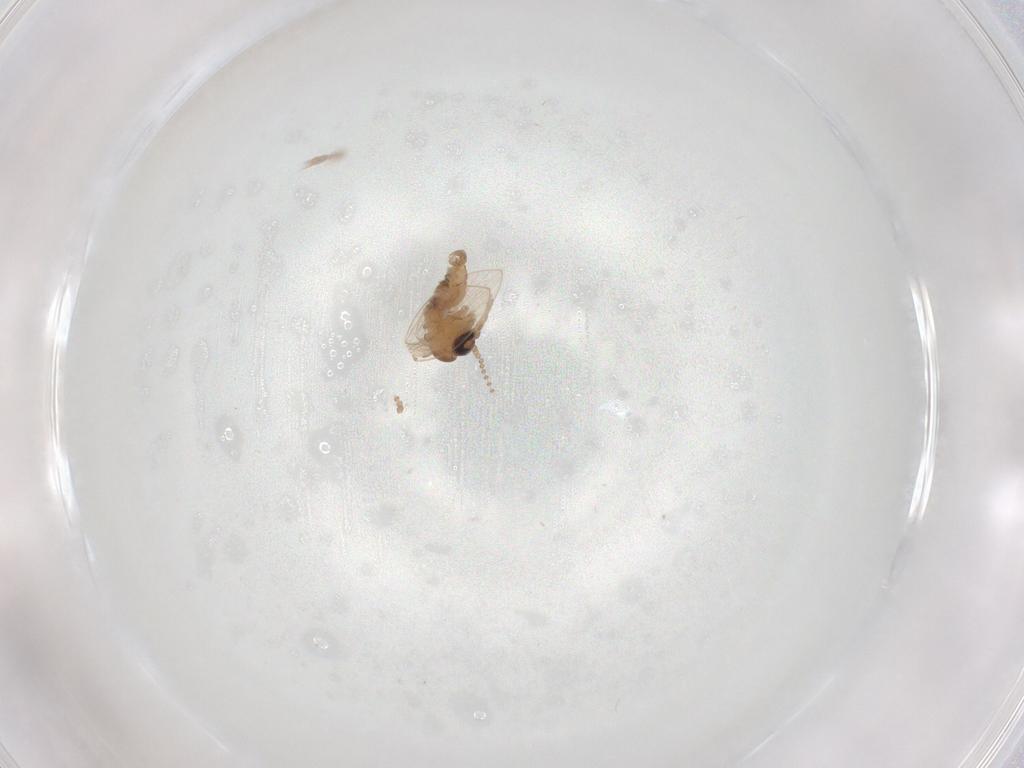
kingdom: Animalia
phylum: Arthropoda
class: Insecta
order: Diptera
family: Psychodidae
